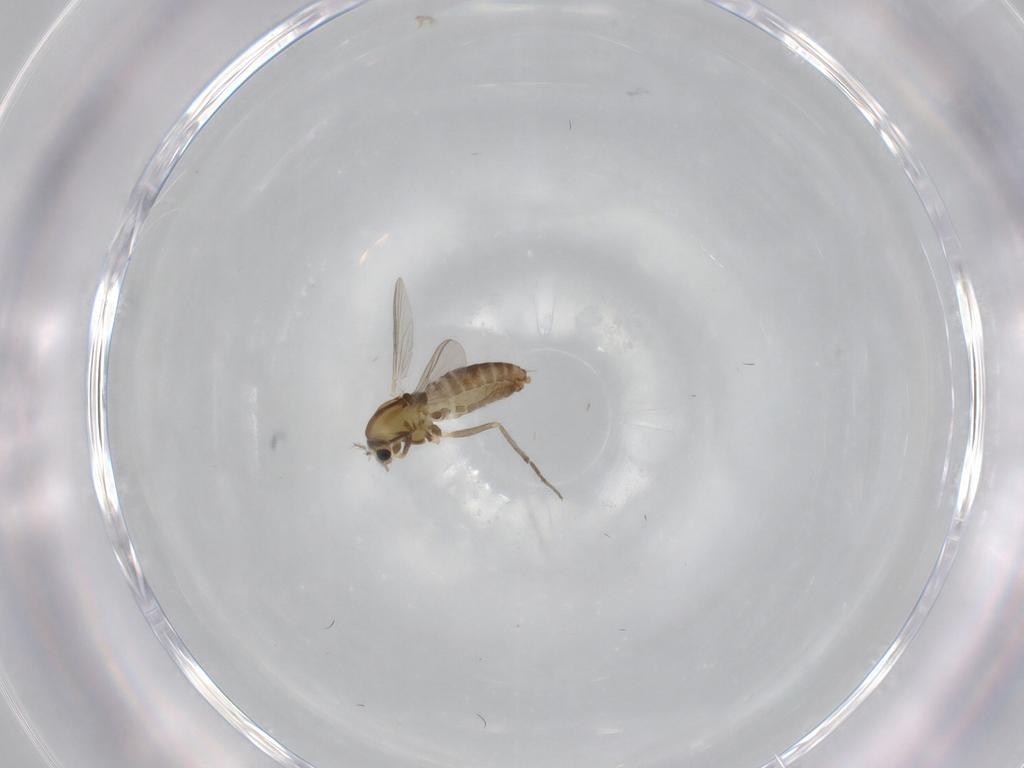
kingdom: Animalia
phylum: Arthropoda
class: Insecta
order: Diptera
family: Chironomidae
